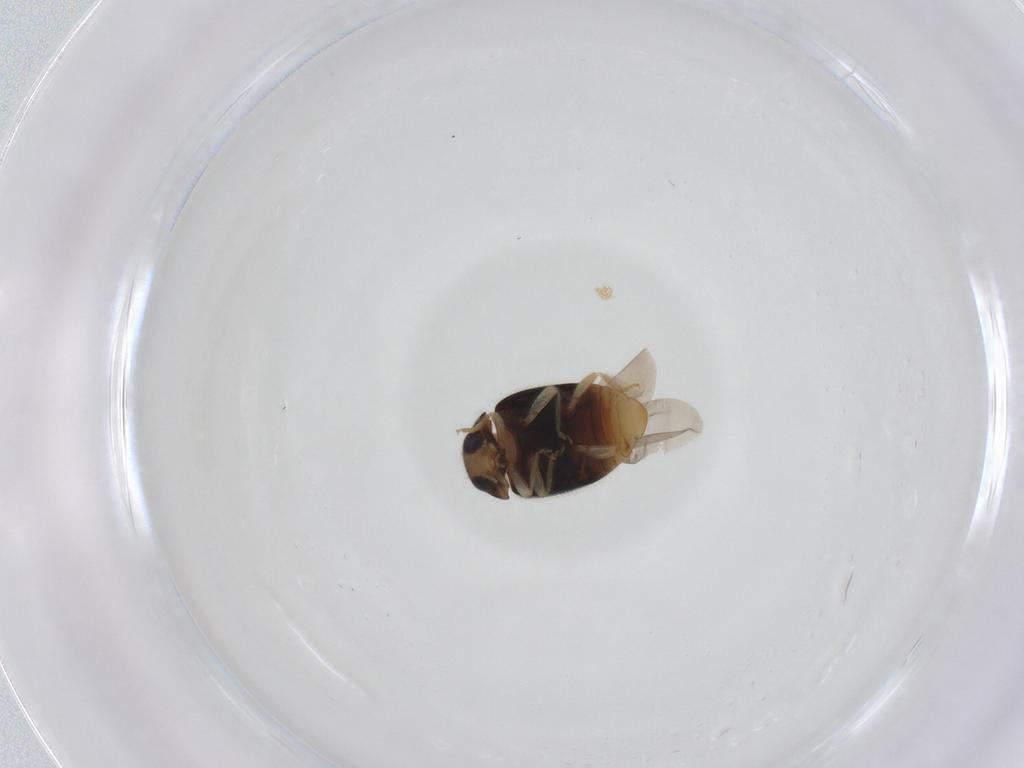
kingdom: Animalia
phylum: Arthropoda
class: Insecta
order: Coleoptera
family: Coccinellidae
